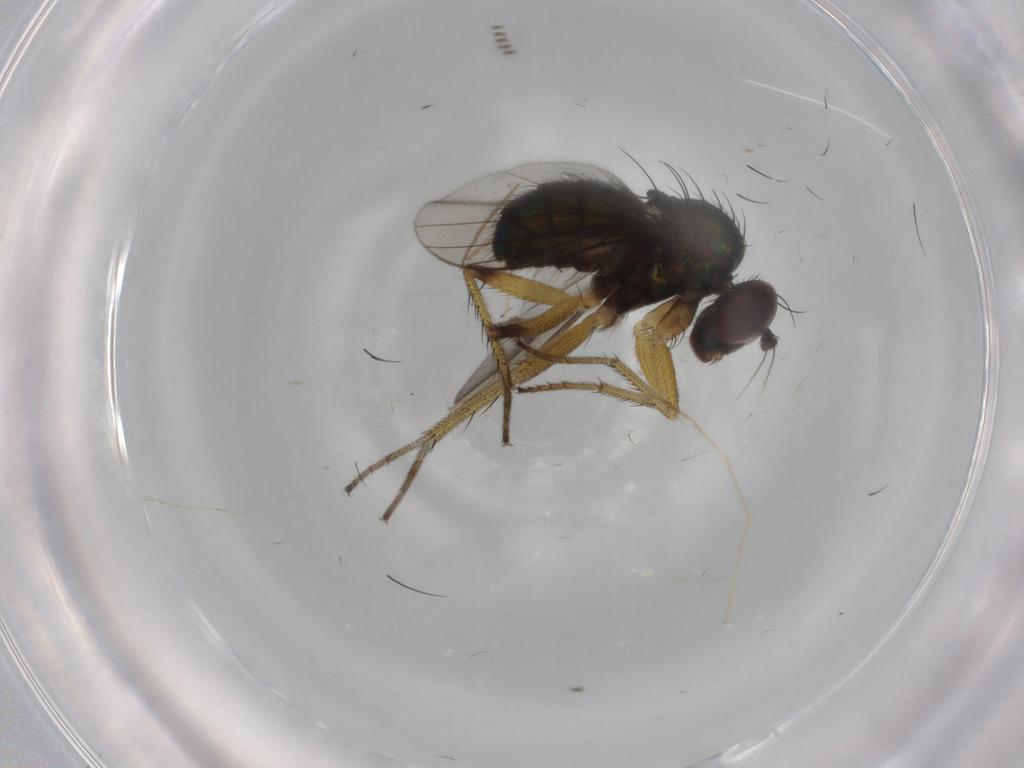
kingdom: Animalia
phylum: Arthropoda
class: Insecta
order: Diptera
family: Dolichopodidae
